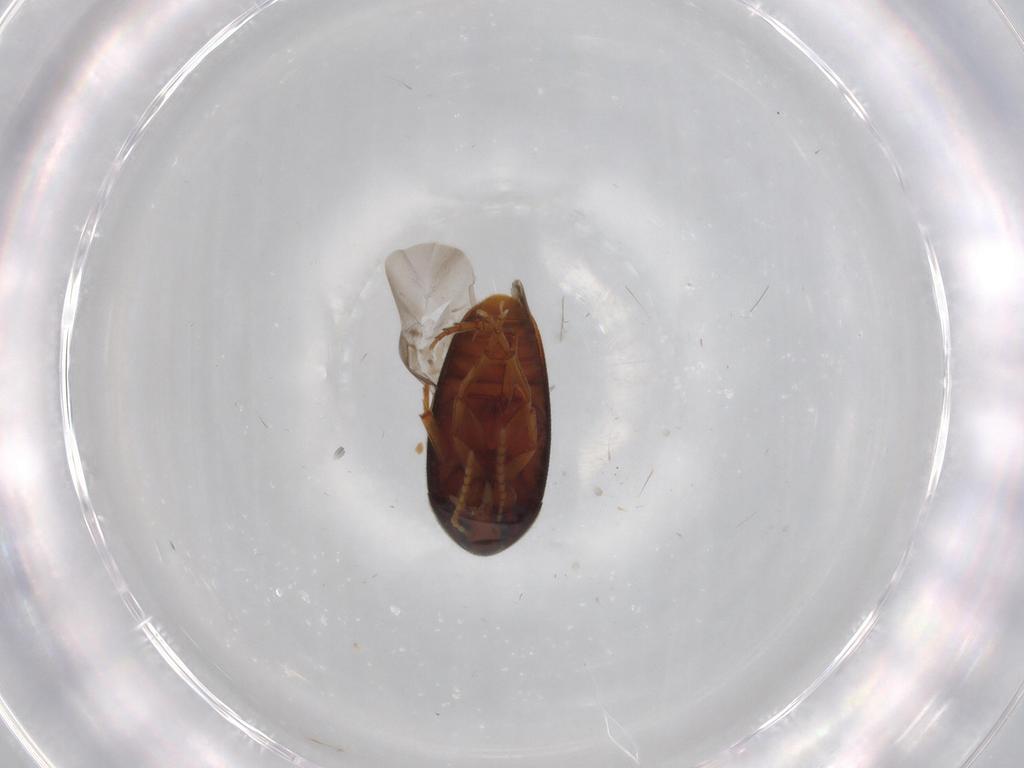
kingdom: Animalia
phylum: Arthropoda
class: Insecta
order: Coleoptera
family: Scraptiidae
